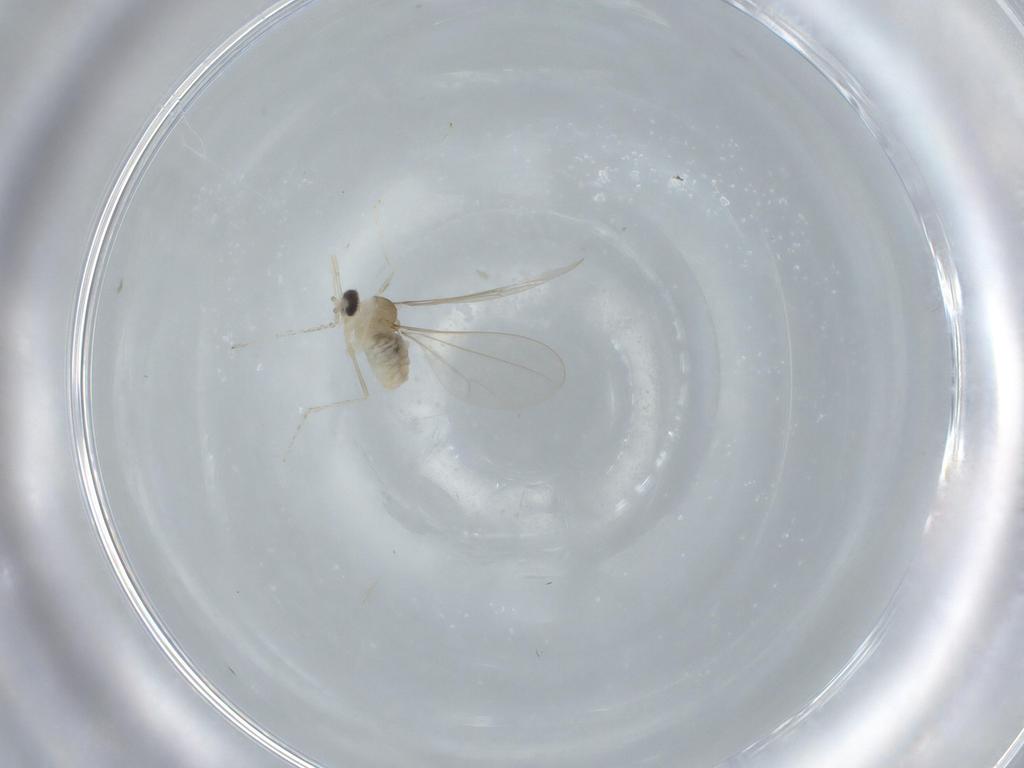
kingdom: Animalia
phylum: Arthropoda
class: Insecta
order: Diptera
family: Cecidomyiidae
